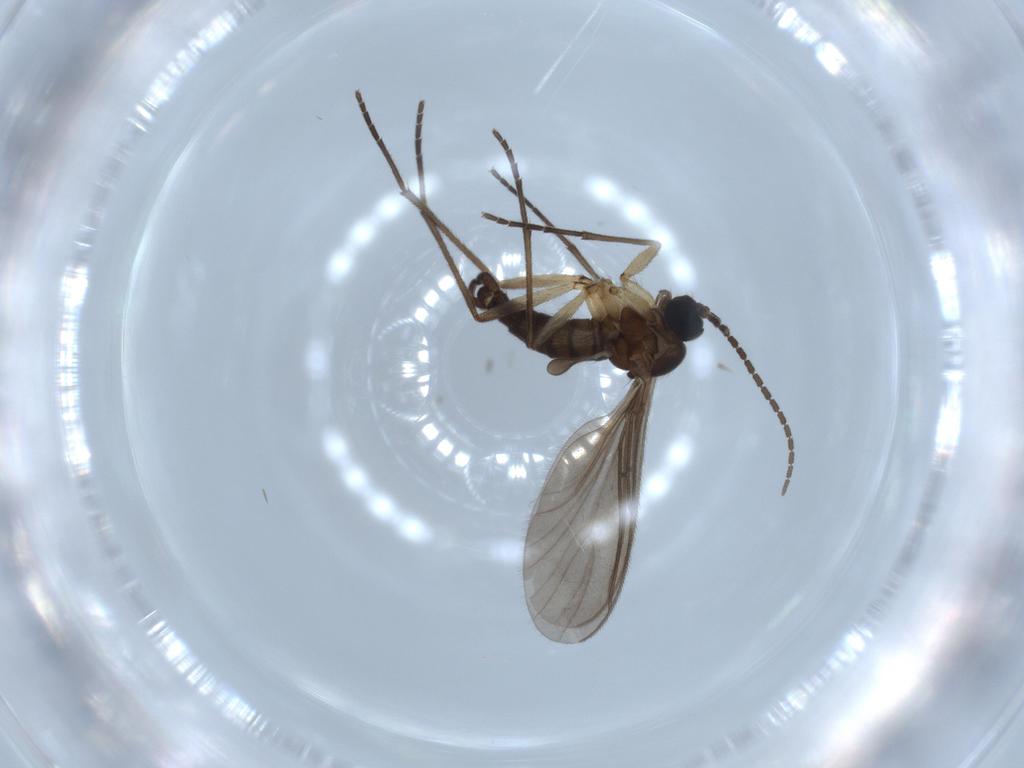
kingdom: Animalia
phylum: Arthropoda
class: Insecta
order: Diptera
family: Sciaridae
